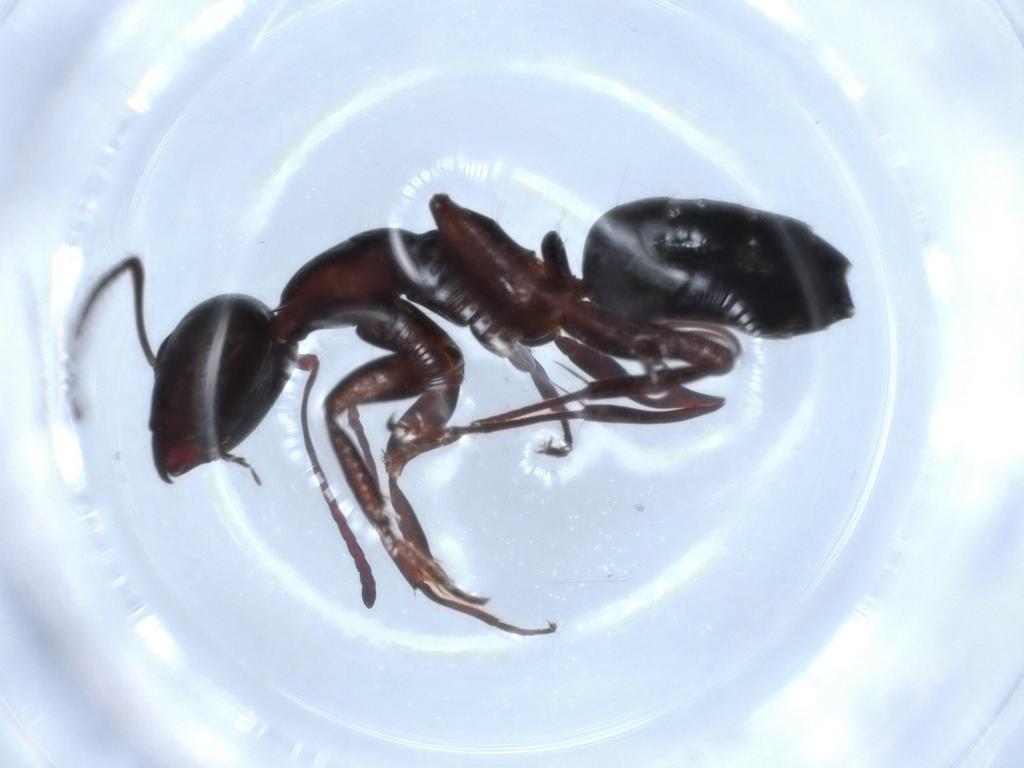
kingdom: Animalia
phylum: Arthropoda
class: Insecta
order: Hymenoptera
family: Formicidae
